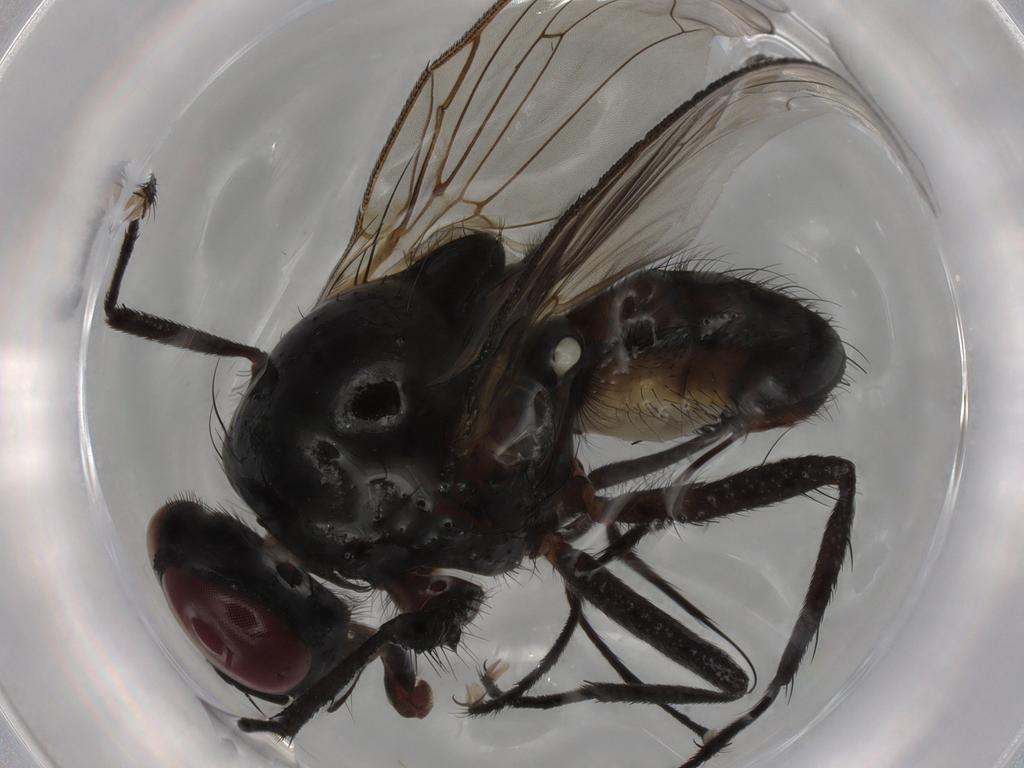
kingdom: Animalia
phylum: Arthropoda
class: Insecta
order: Diptera
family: Anthomyiidae
